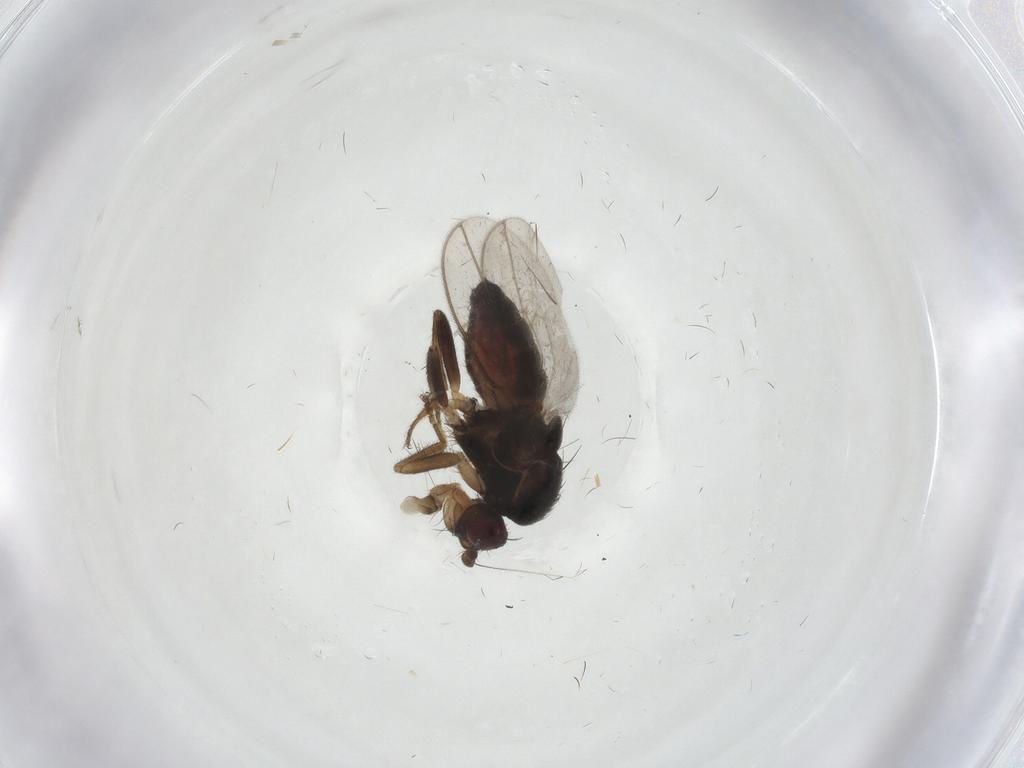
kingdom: Animalia
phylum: Arthropoda
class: Insecta
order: Diptera
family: Sphaeroceridae
